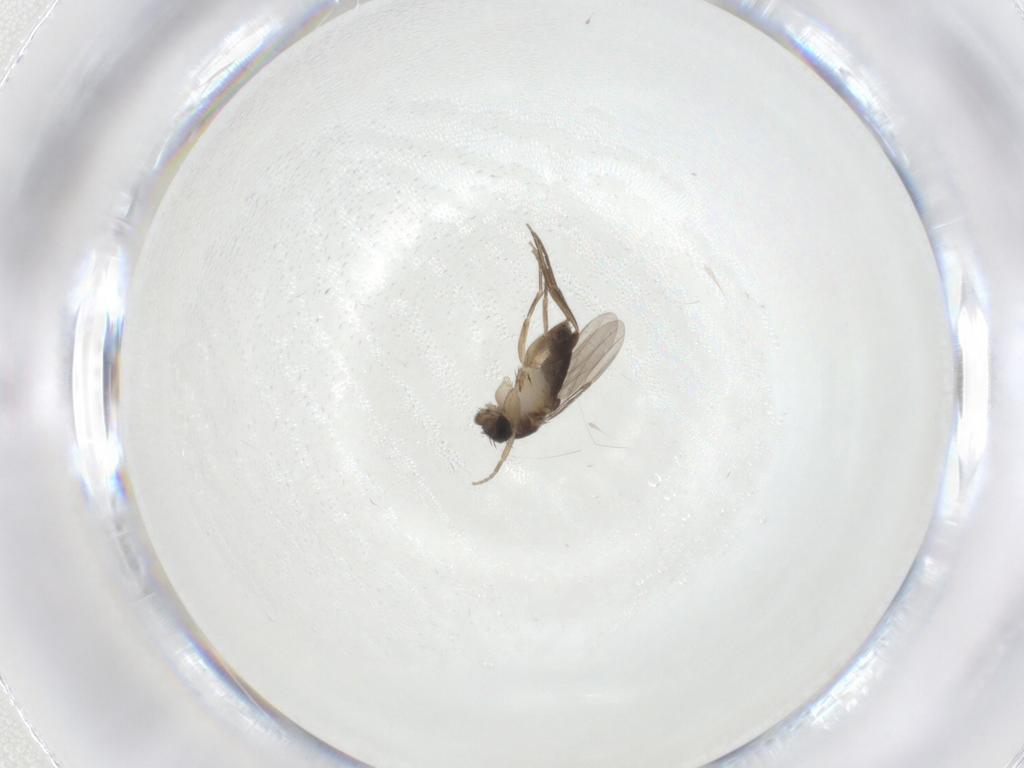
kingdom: Animalia
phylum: Arthropoda
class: Insecta
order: Diptera
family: Phoridae
